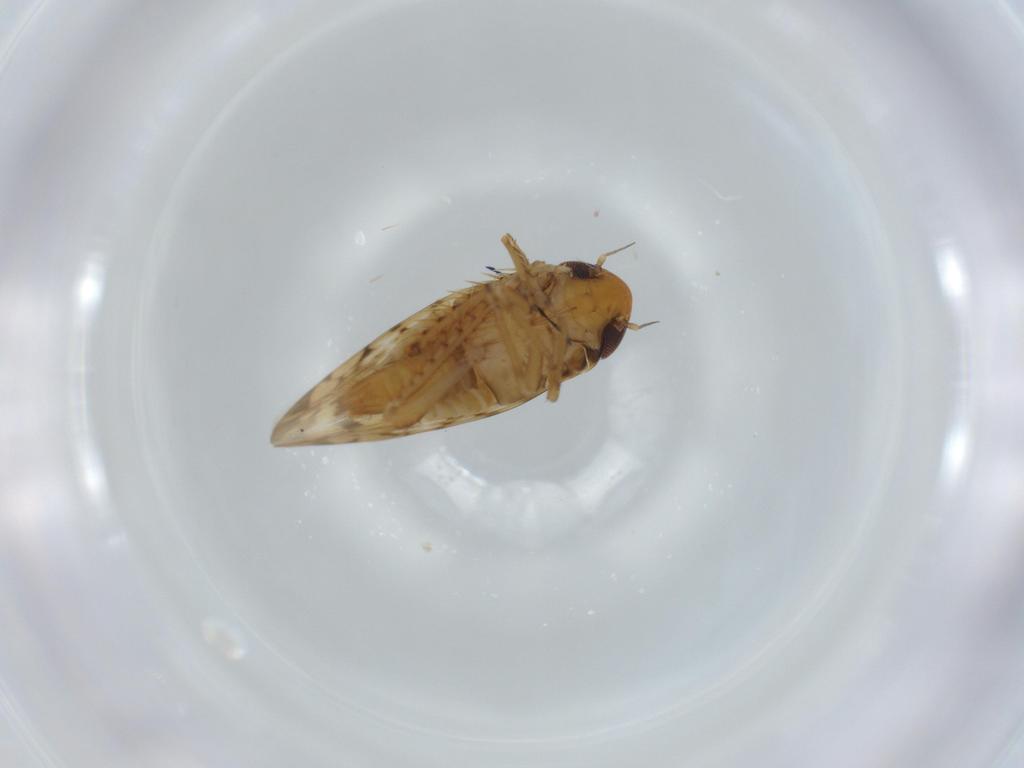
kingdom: Animalia
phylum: Arthropoda
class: Insecta
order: Hemiptera
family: Cicadellidae
